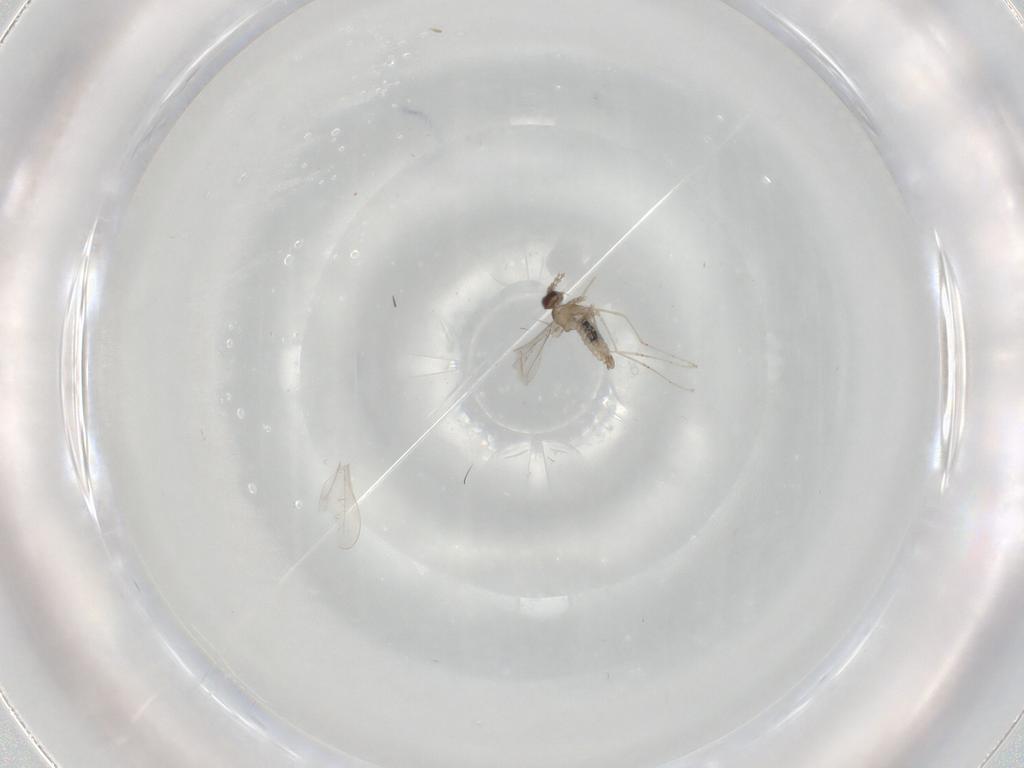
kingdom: Animalia
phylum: Arthropoda
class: Insecta
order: Diptera
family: Cecidomyiidae
